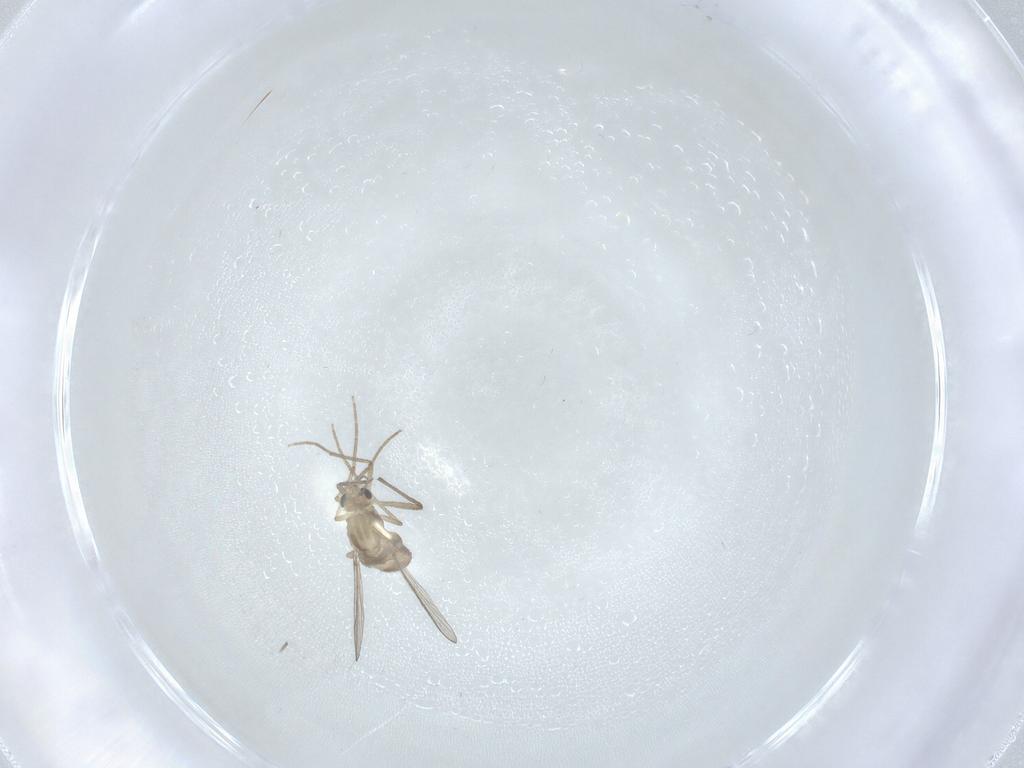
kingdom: Animalia
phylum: Arthropoda
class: Insecta
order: Diptera
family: Chironomidae
